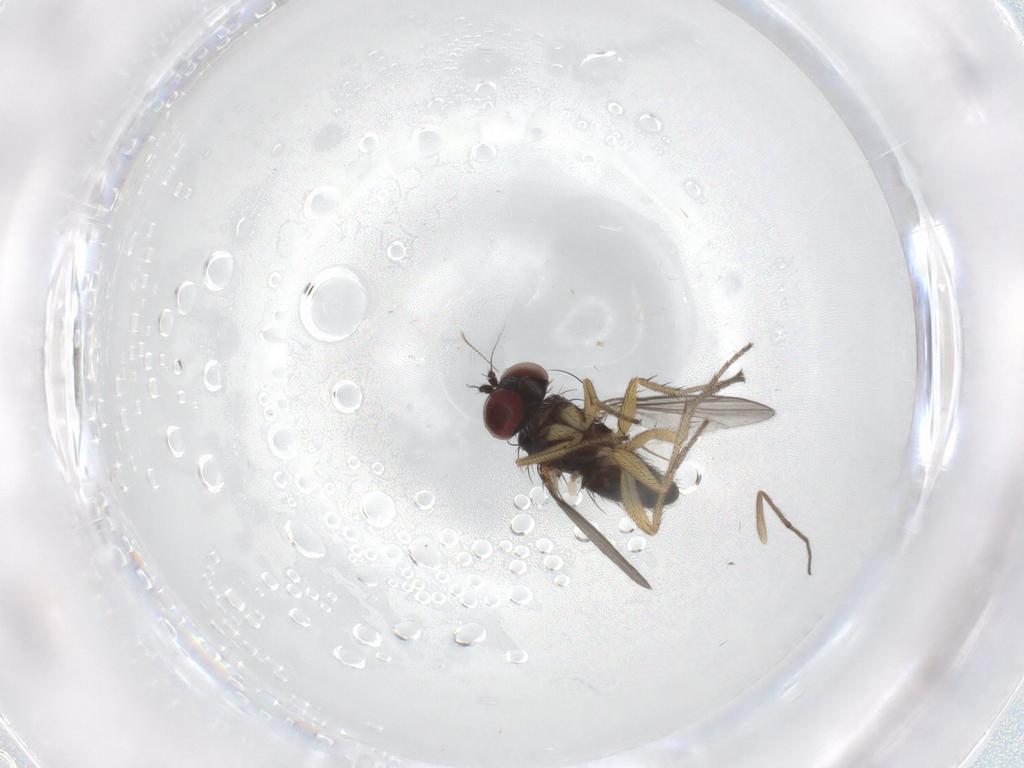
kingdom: Animalia
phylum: Arthropoda
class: Insecta
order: Diptera
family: Chironomidae
